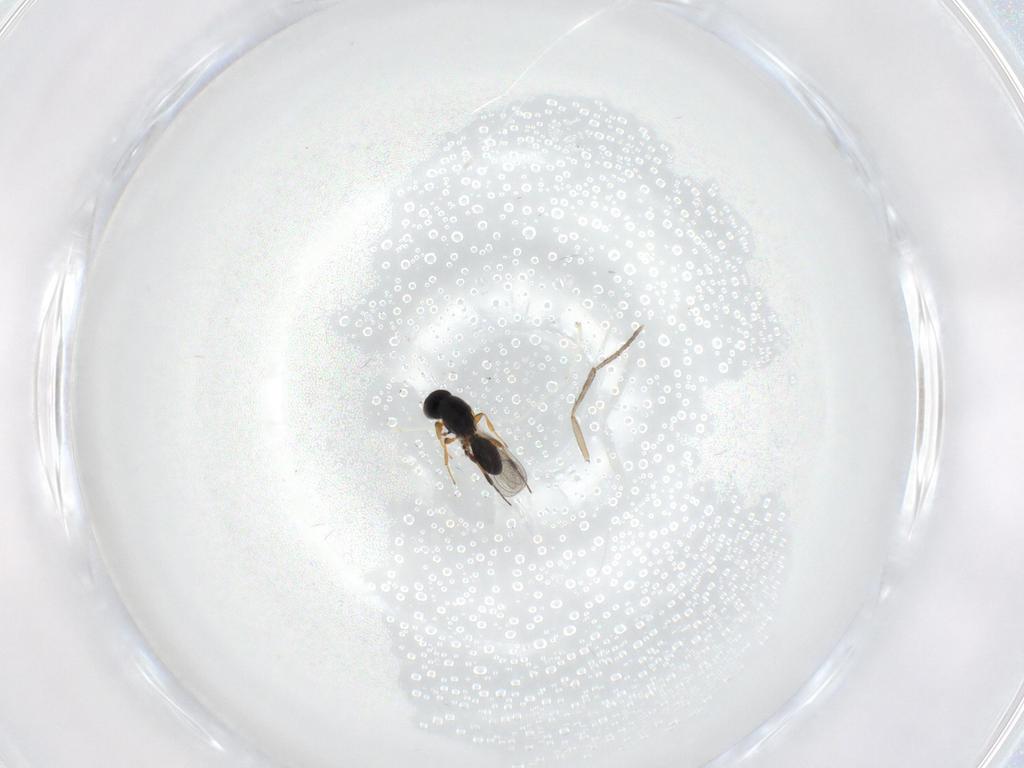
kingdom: Animalia
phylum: Arthropoda
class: Insecta
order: Hymenoptera
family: Platygastridae
